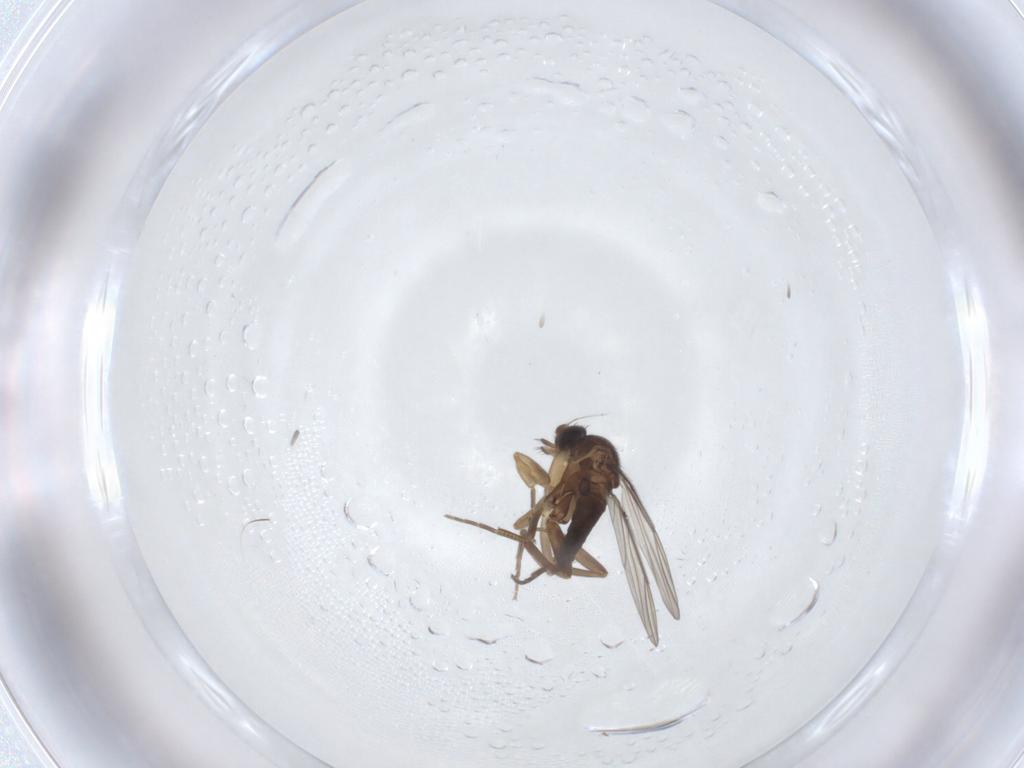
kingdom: Animalia
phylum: Arthropoda
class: Insecta
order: Diptera
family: Phoridae
